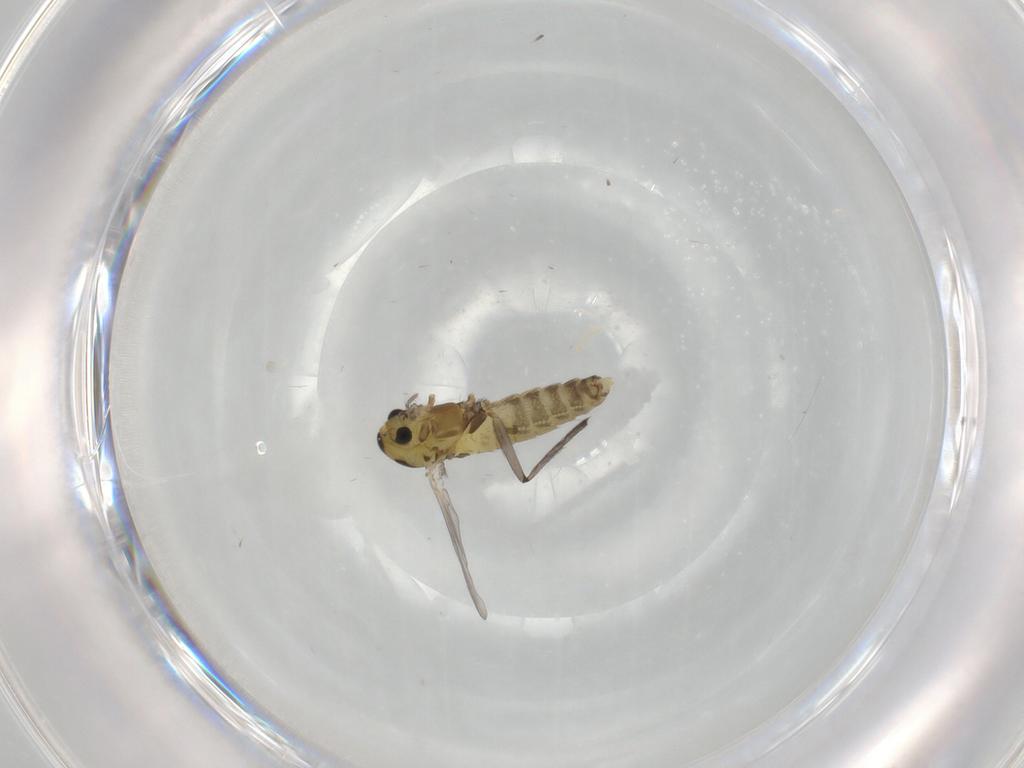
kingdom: Animalia
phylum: Arthropoda
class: Insecta
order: Diptera
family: Chironomidae
